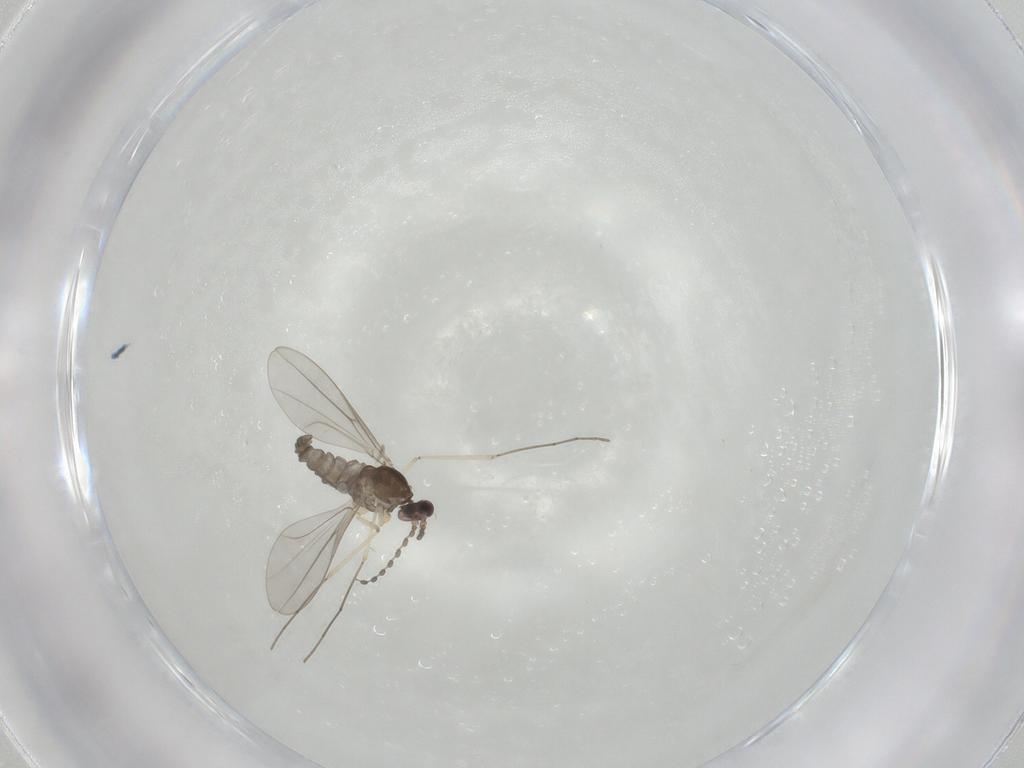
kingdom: Animalia
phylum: Arthropoda
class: Insecta
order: Diptera
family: Cecidomyiidae
